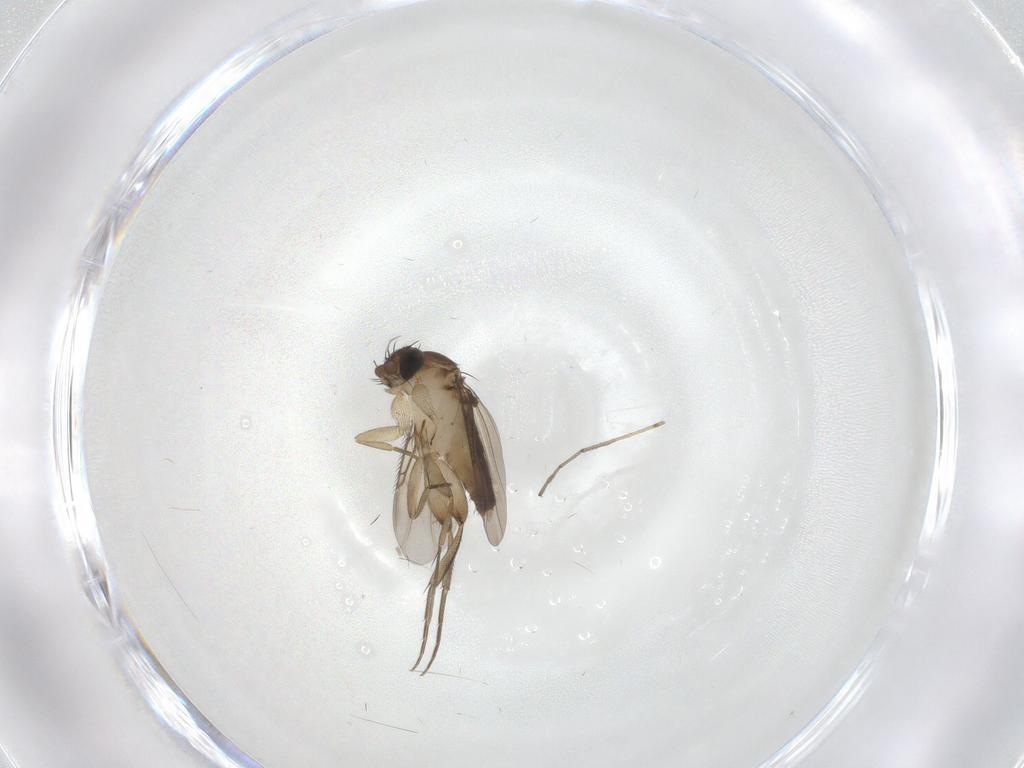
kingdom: Animalia
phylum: Arthropoda
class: Insecta
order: Diptera
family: Phoridae
